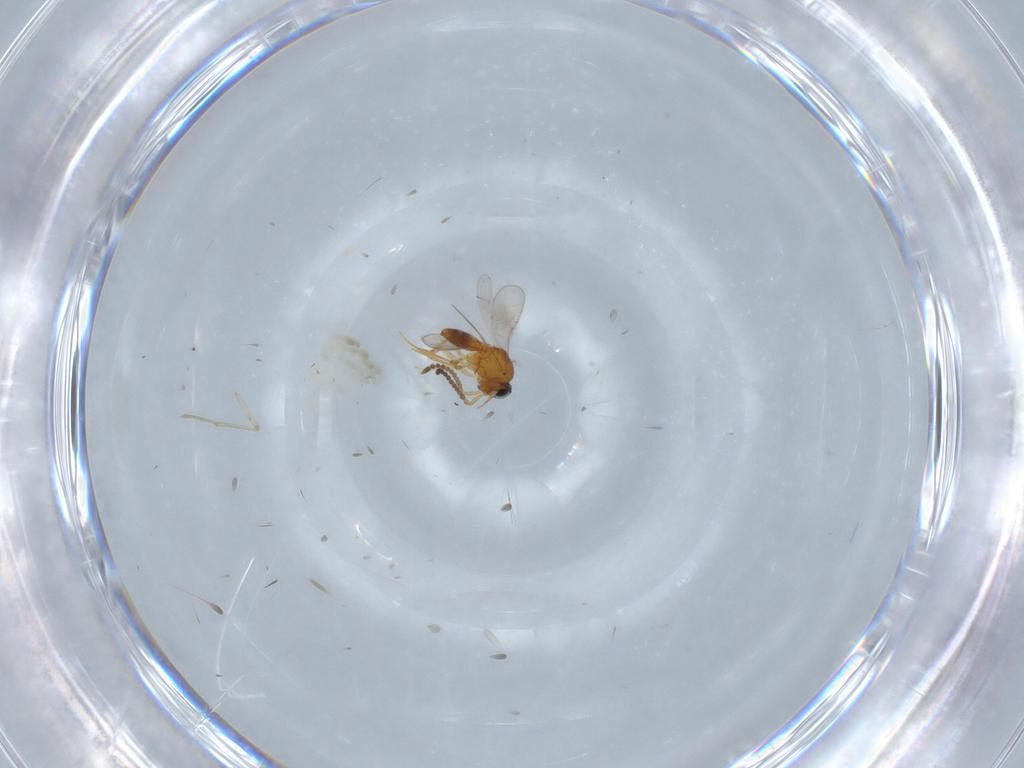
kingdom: Animalia
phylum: Arthropoda
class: Insecta
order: Hymenoptera
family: Scelionidae
